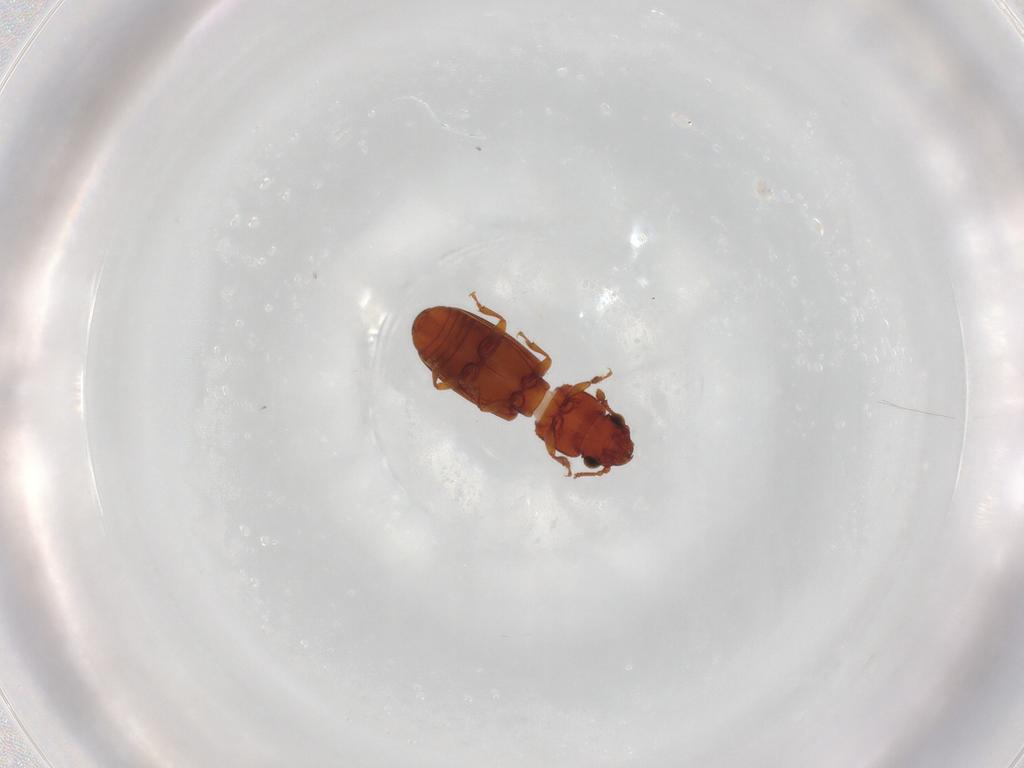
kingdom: Animalia
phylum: Arthropoda
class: Insecta
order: Coleoptera
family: Monotomidae
